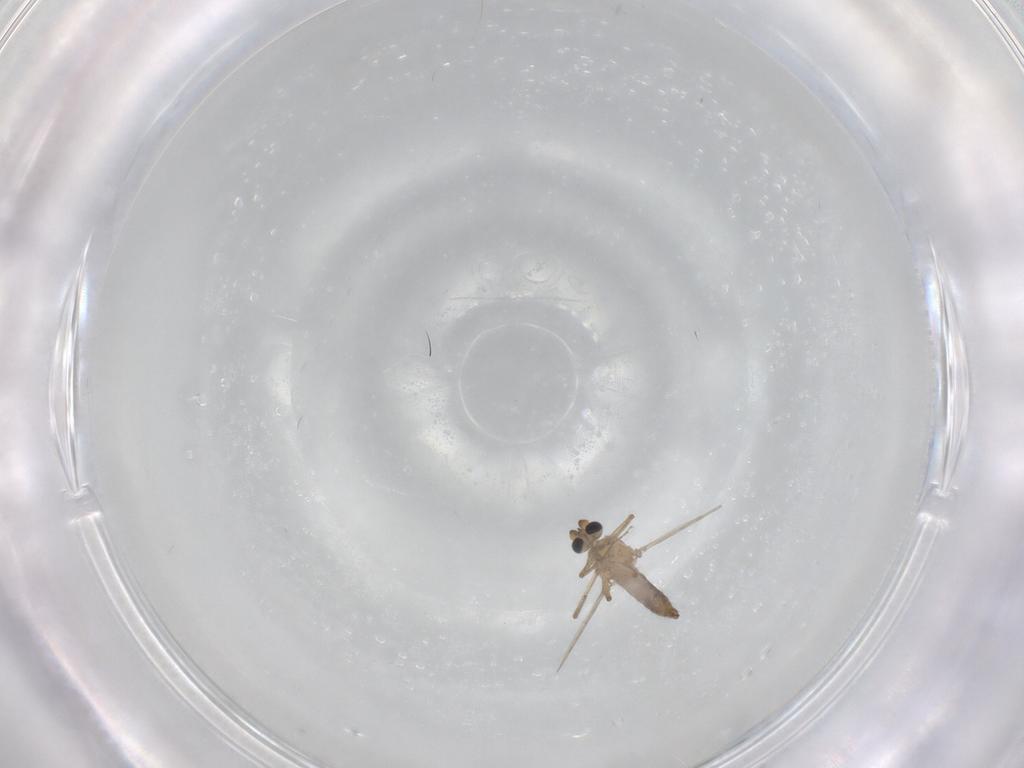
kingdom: Animalia
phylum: Arthropoda
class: Insecta
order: Diptera
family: Ceratopogonidae
